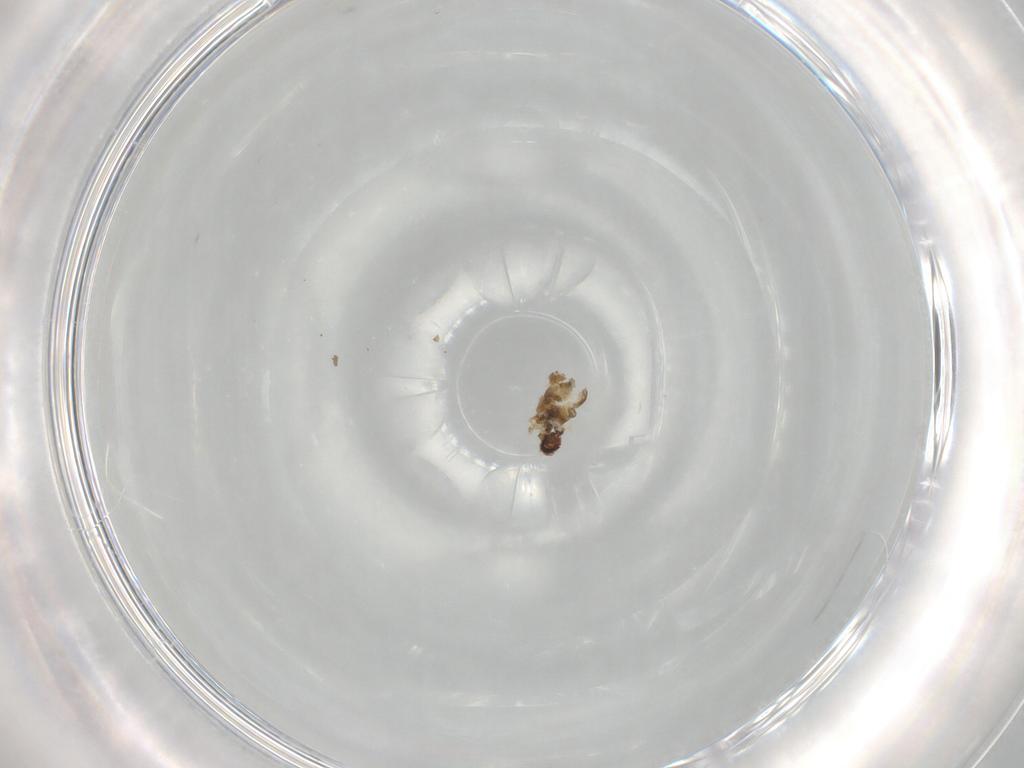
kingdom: Animalia
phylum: Arthropoda
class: Insecta
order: Diptera
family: Cecidomyiidae
